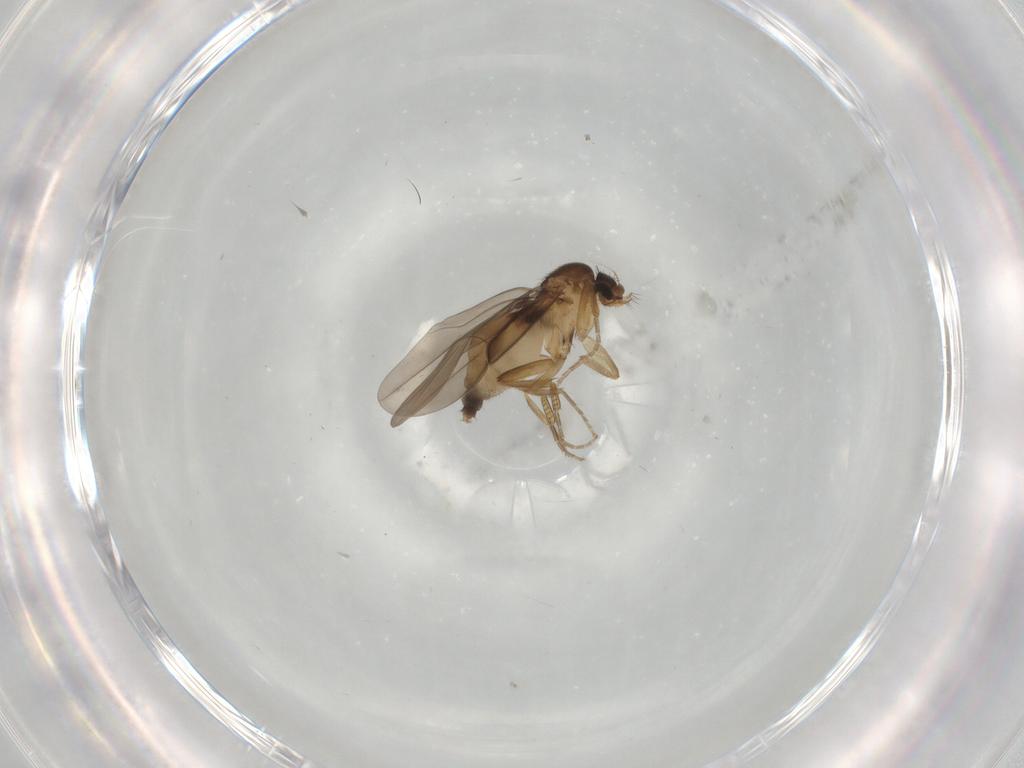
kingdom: Animalia
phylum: Arthropoda
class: Insecta
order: Diptera
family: Phoridae
